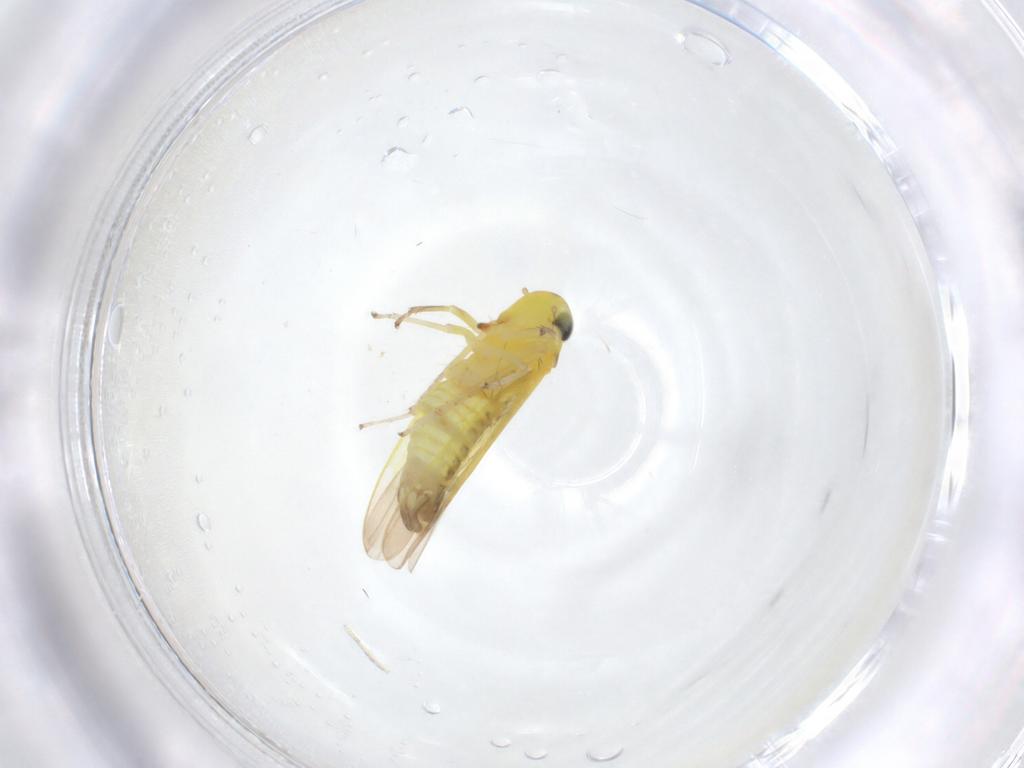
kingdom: Animalia
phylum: Arthropoda
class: Insecta
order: Hemiptera
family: Cicadellidae
